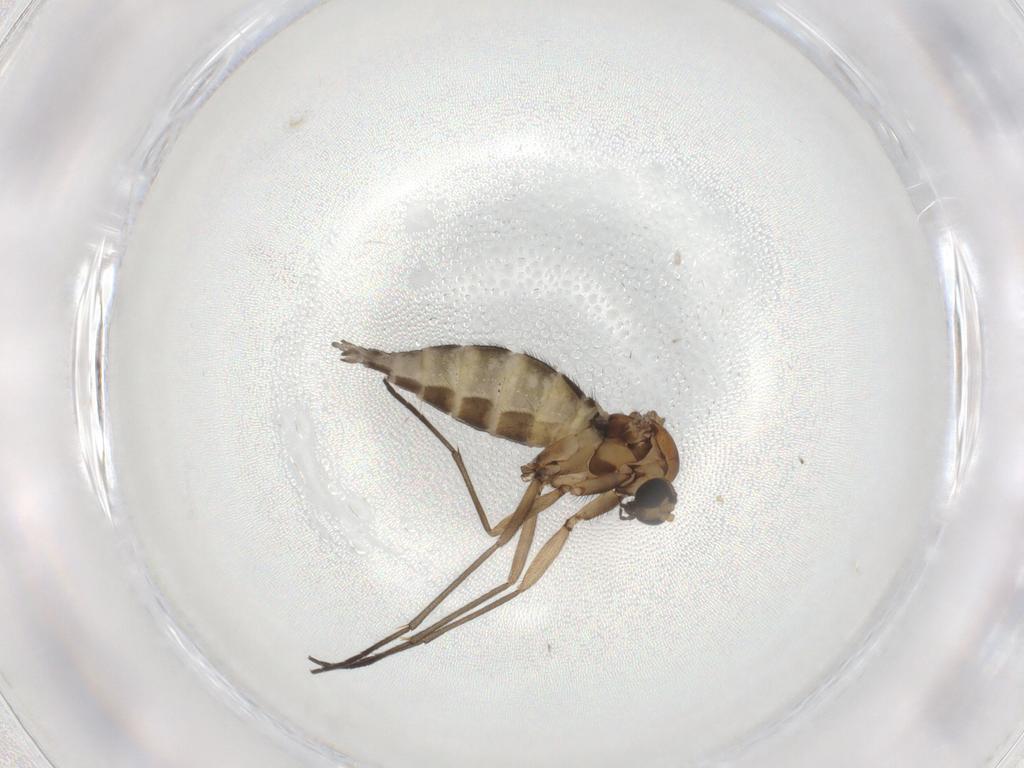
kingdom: Animalia
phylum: Arthropoda
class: Insecta
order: Diptera
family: Sciaridae
